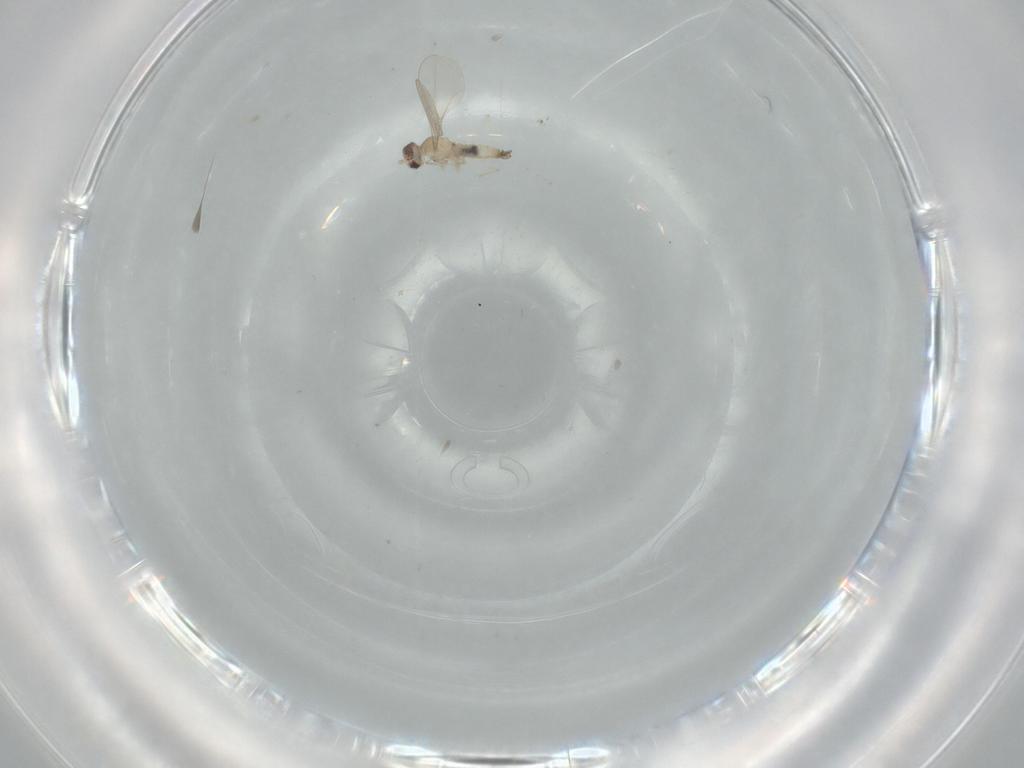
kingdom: Animalia
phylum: Arthropoda
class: Insecta
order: Diptera
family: Cecidomyiidae
